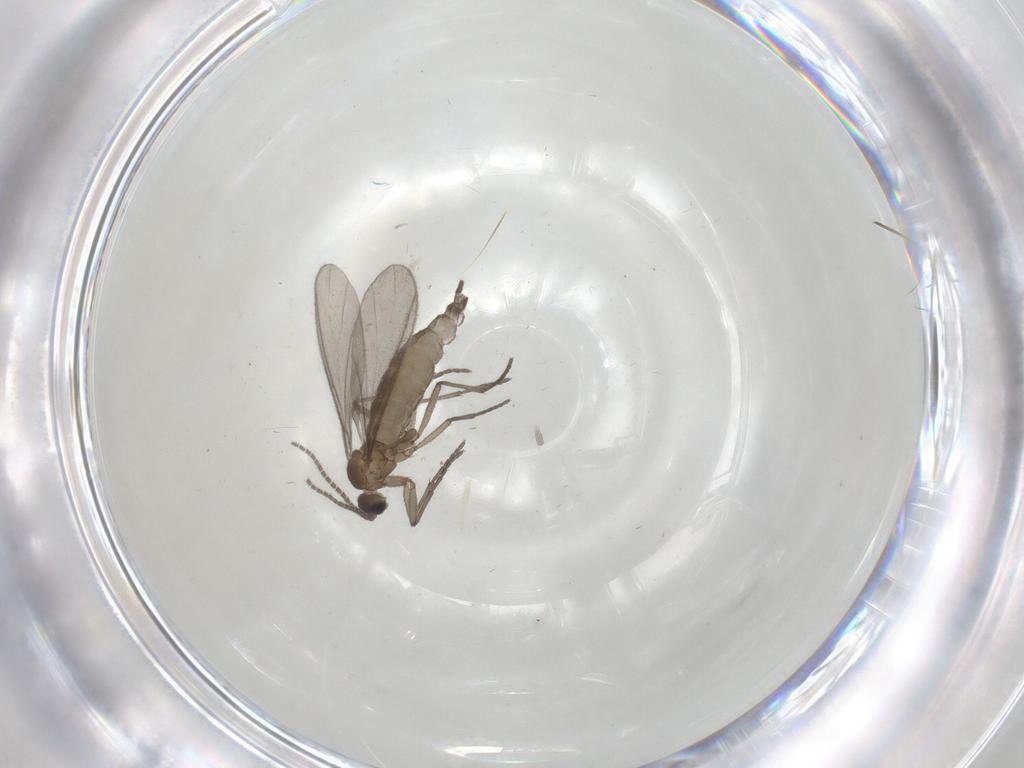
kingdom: Animalia
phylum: Arthropoda
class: Insecta
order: Diptera
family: Sciaridae
